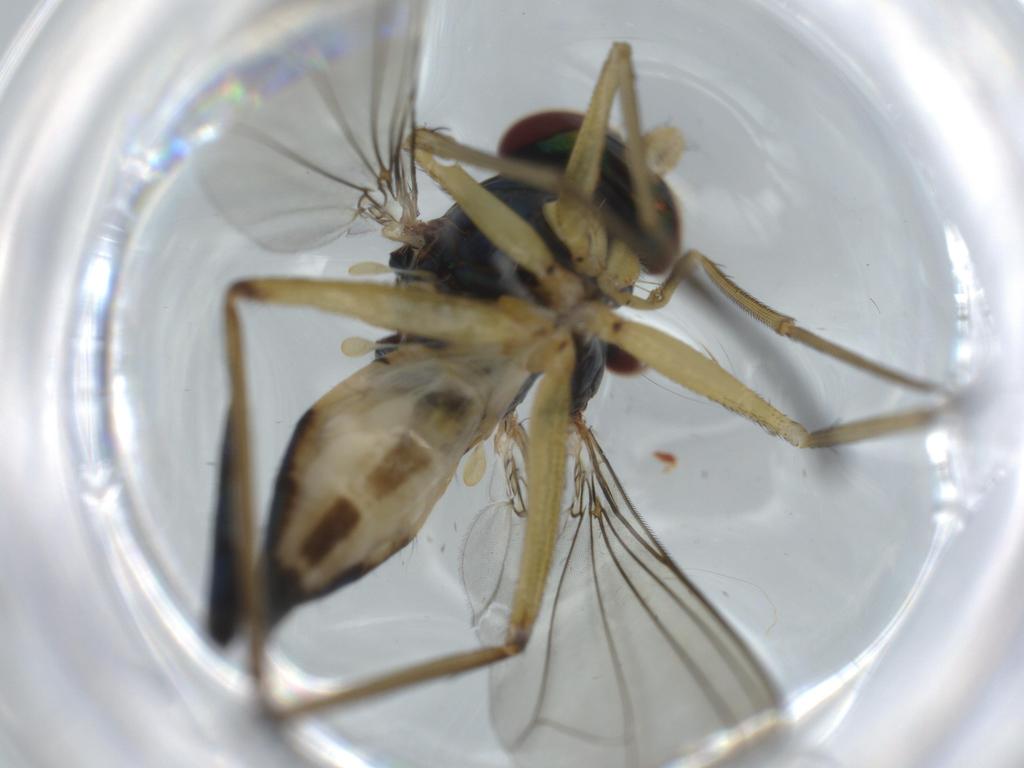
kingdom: Animalia
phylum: Arthropoda
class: Insecta
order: Diptera
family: Dolichopodidae
